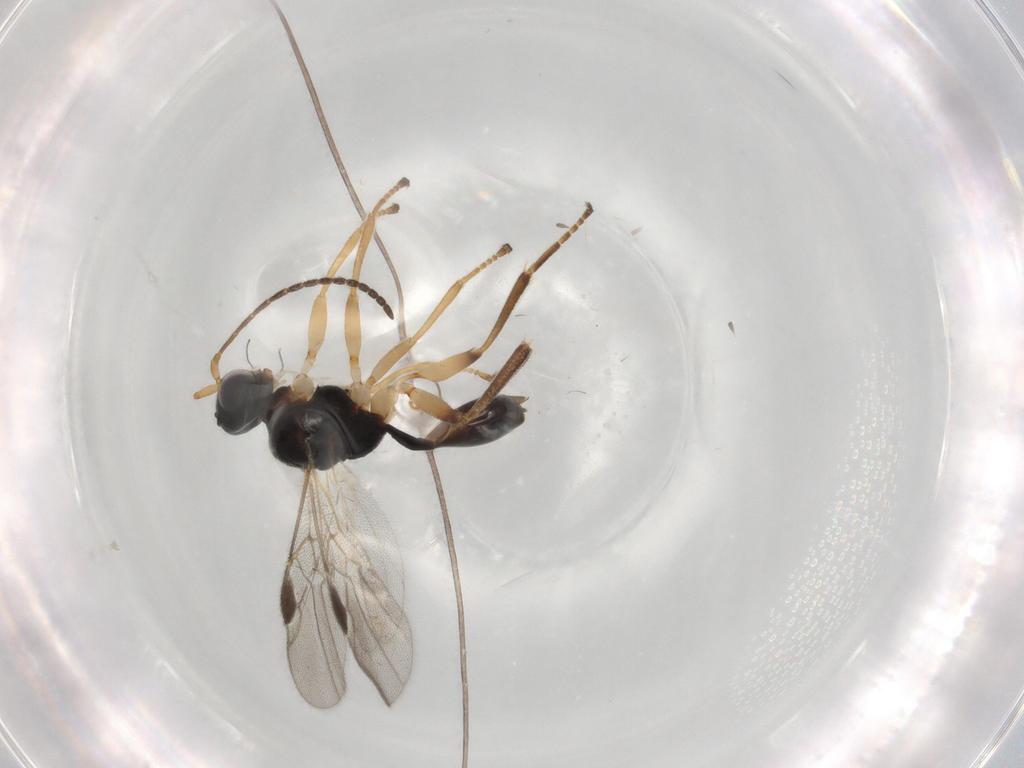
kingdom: Animalia
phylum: Arthropoda
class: Insecta
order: Hymenoptera
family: Braconidae
